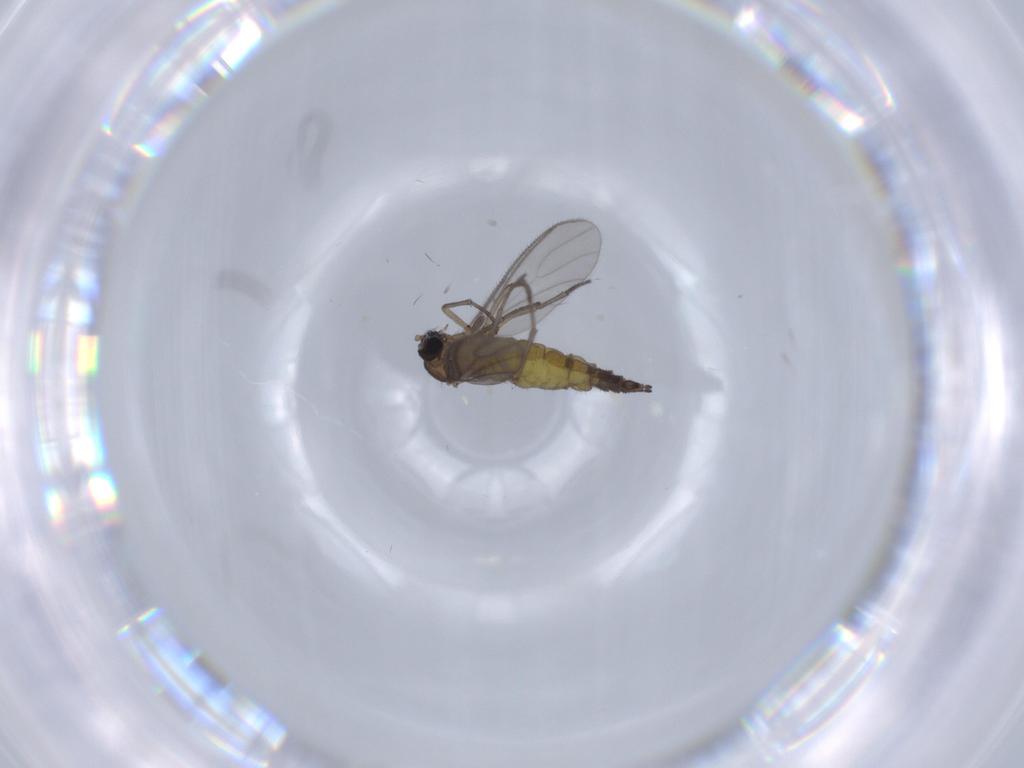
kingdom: Animalia
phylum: Arthropoda
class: Insecta
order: Diptera
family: Sciaridae
